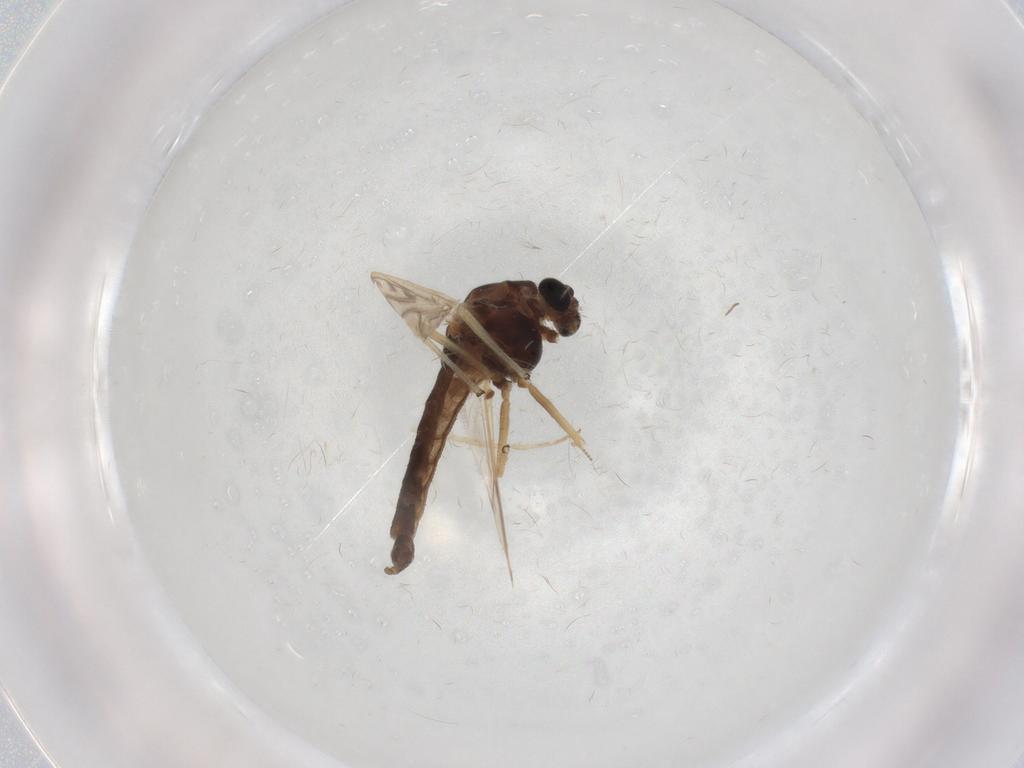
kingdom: Animalia
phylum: Arthropoda
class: Insecta
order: Diptera
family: Chironomidae
